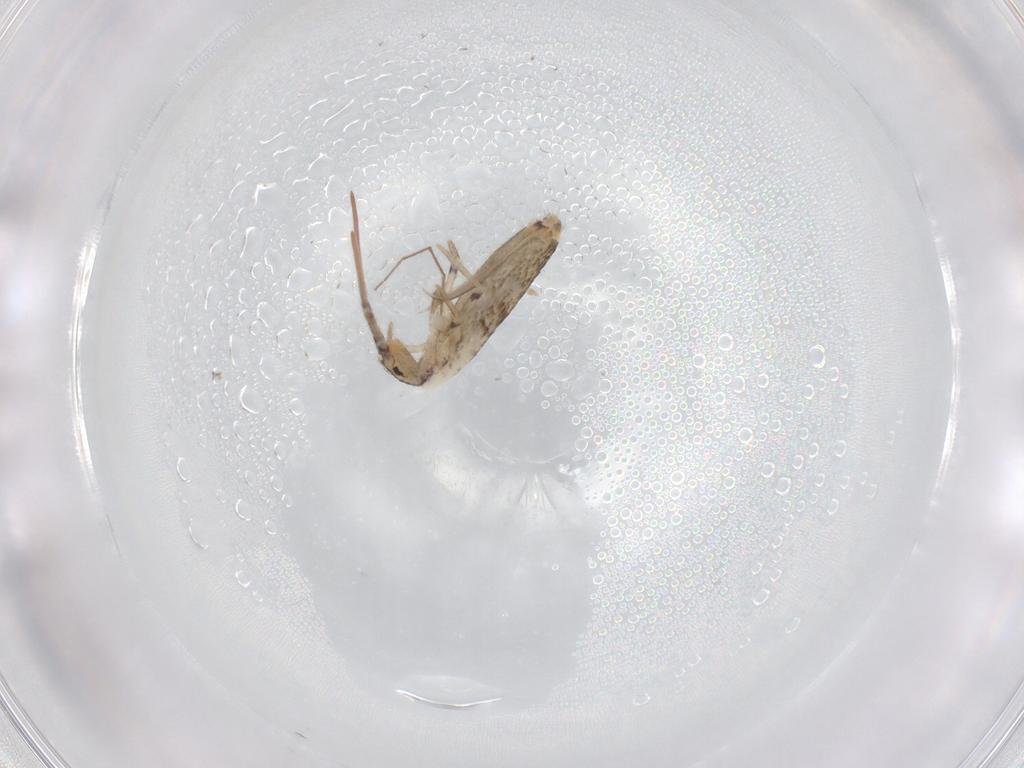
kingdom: Animalia
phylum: Arthropoda
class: Collembola
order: Entomobryomorpha
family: Entomobryidae
